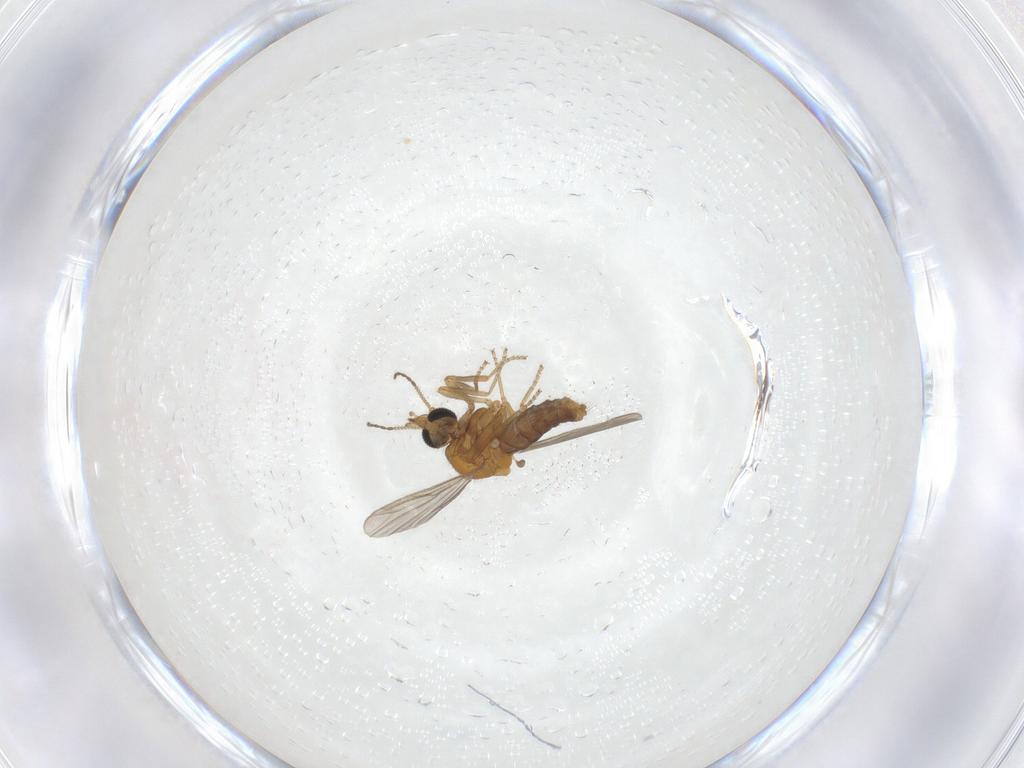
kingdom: Animalia
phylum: Arthropoda
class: Insecta
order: Diptera
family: Ceratopogonidae
